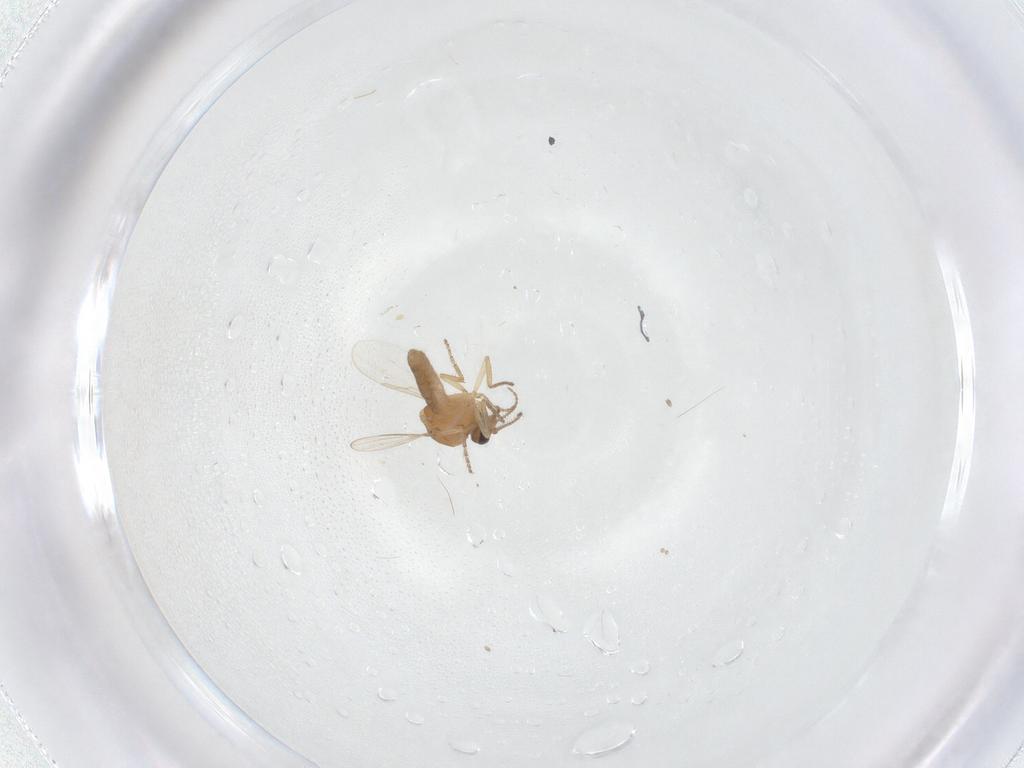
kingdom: Animalia
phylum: Arthropoda
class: Insecta
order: Diptera
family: Ceratopogonidae
